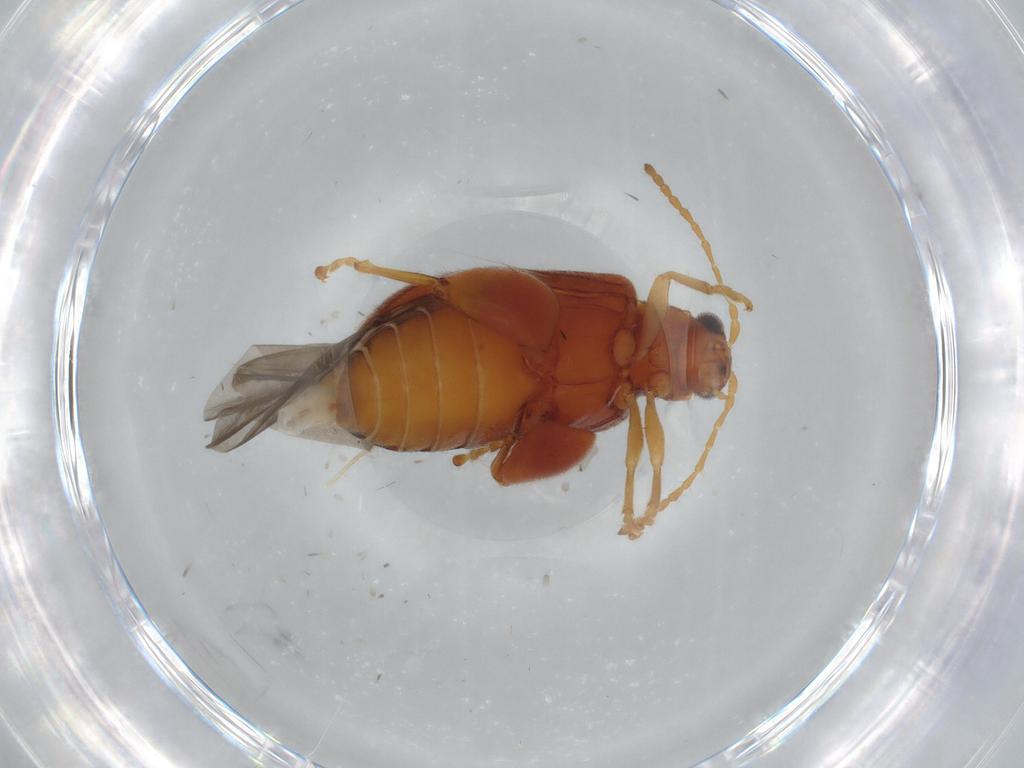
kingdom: Animalia
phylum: Arthropoda
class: Insecta
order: Coleoptera
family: Chrysomelidae
